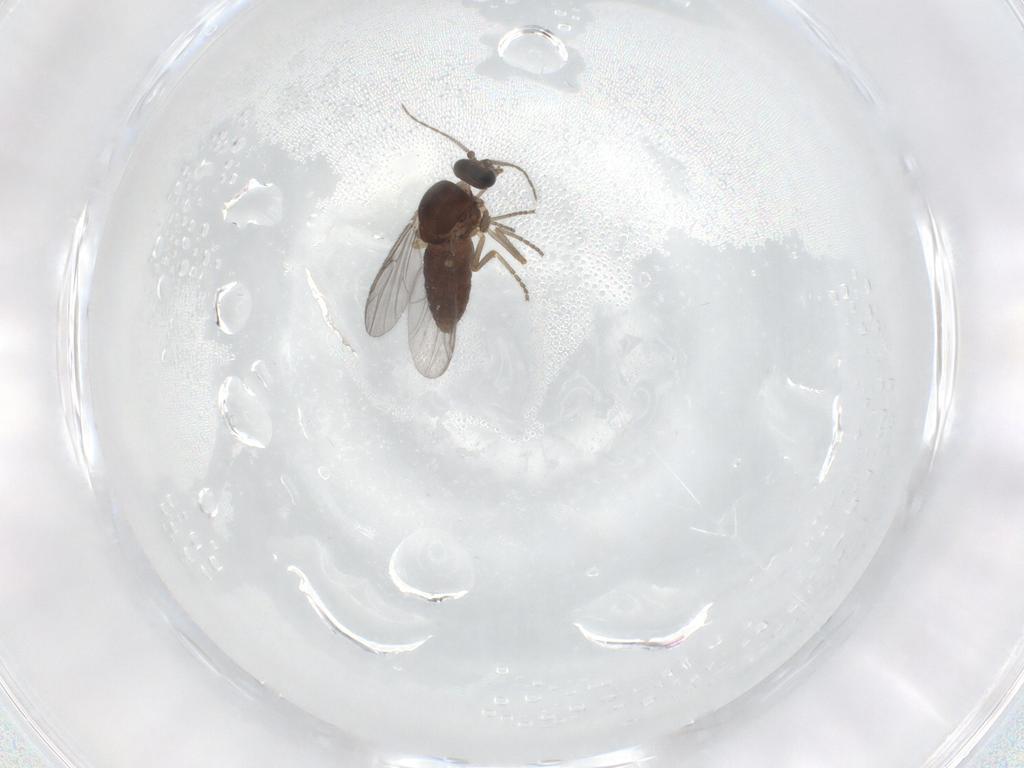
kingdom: Animalia
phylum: Arthropoda
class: Insecta
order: Diptera
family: Ceratopogonidae
